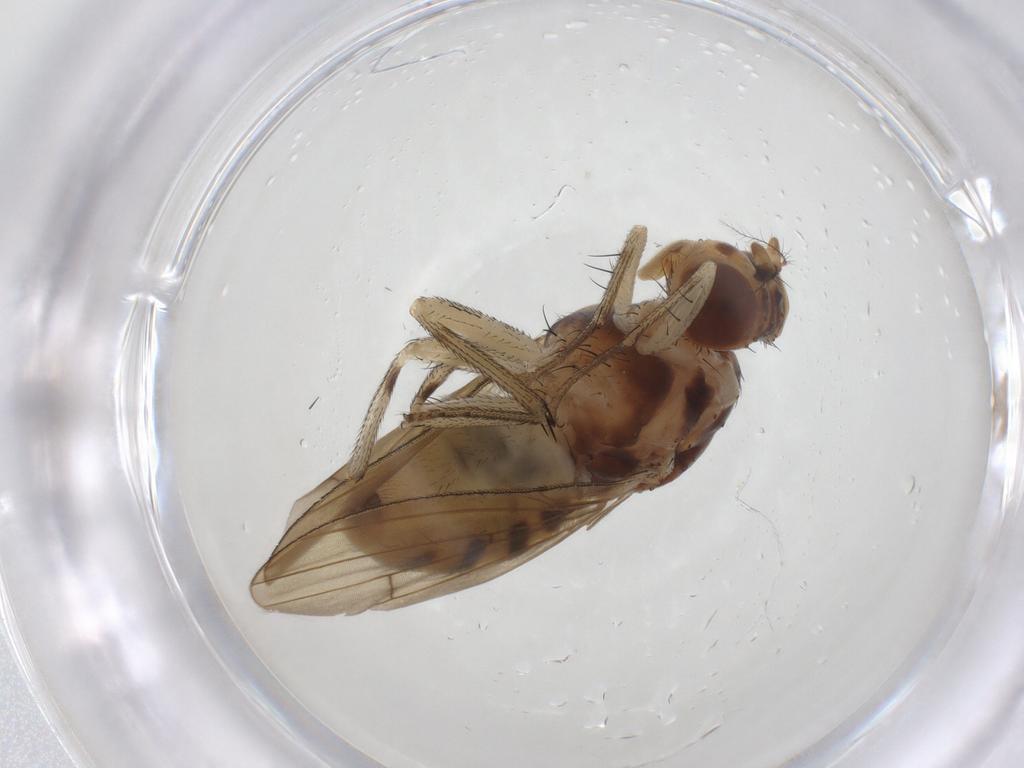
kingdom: Animalia
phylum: Arthropoda
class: Insecta
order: Diptera
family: Lauxaniidae
